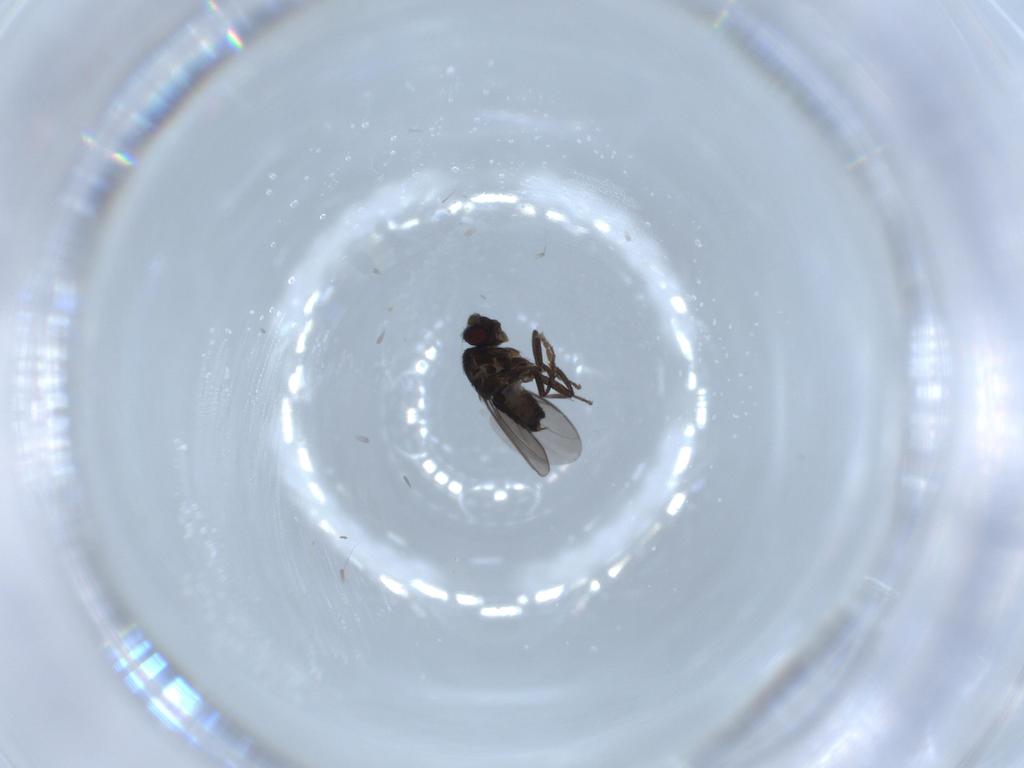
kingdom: Animalia
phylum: Arthropoda
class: Insecta
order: Diptera
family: Sphaeroceridae
